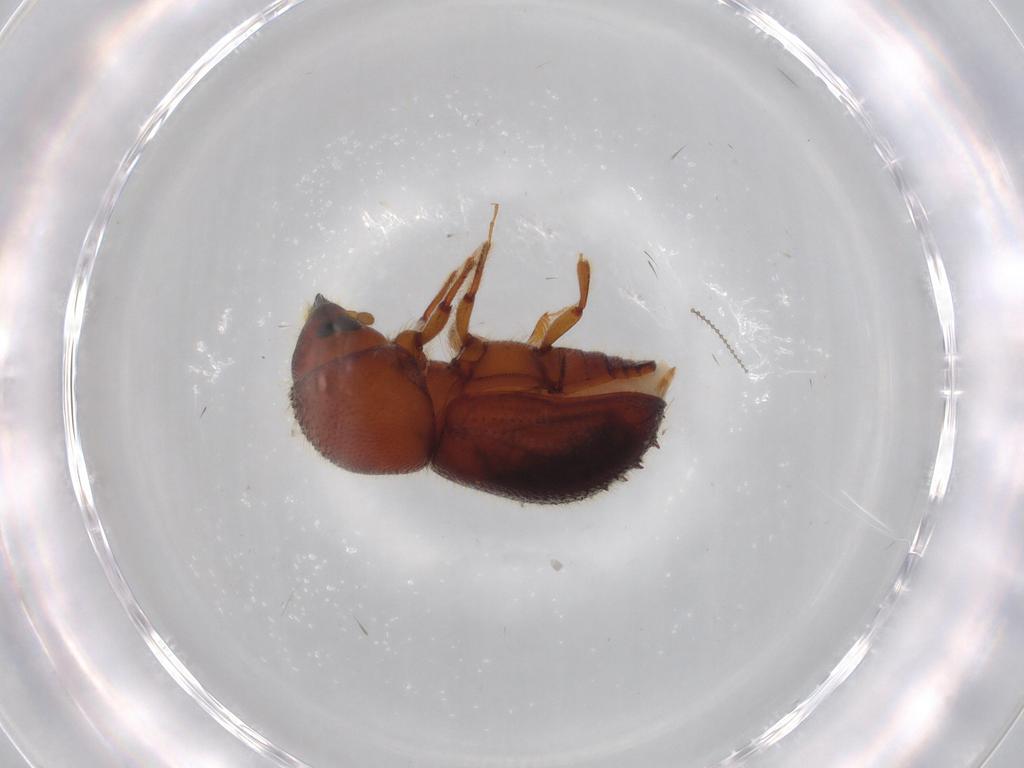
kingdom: Animalia
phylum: Arthropoda
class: Insecta
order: Coleoptera
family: Curculionidae
